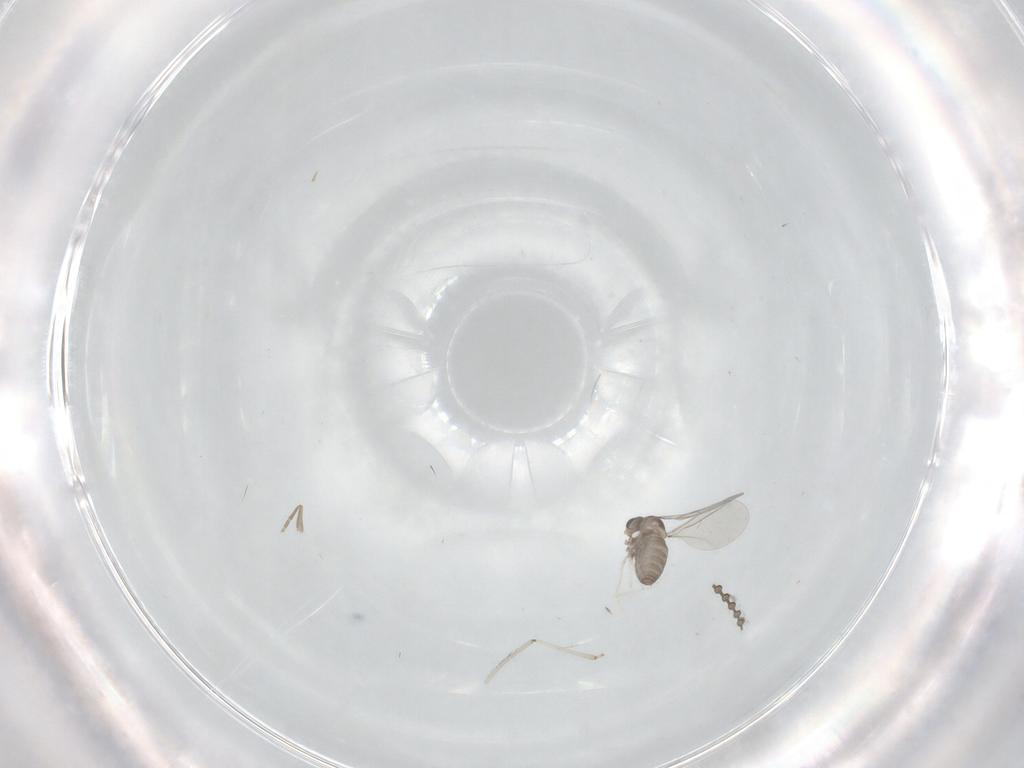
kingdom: Animalia
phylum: Arthropoda
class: Insecta
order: Diptera
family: Cecidomyiidae
